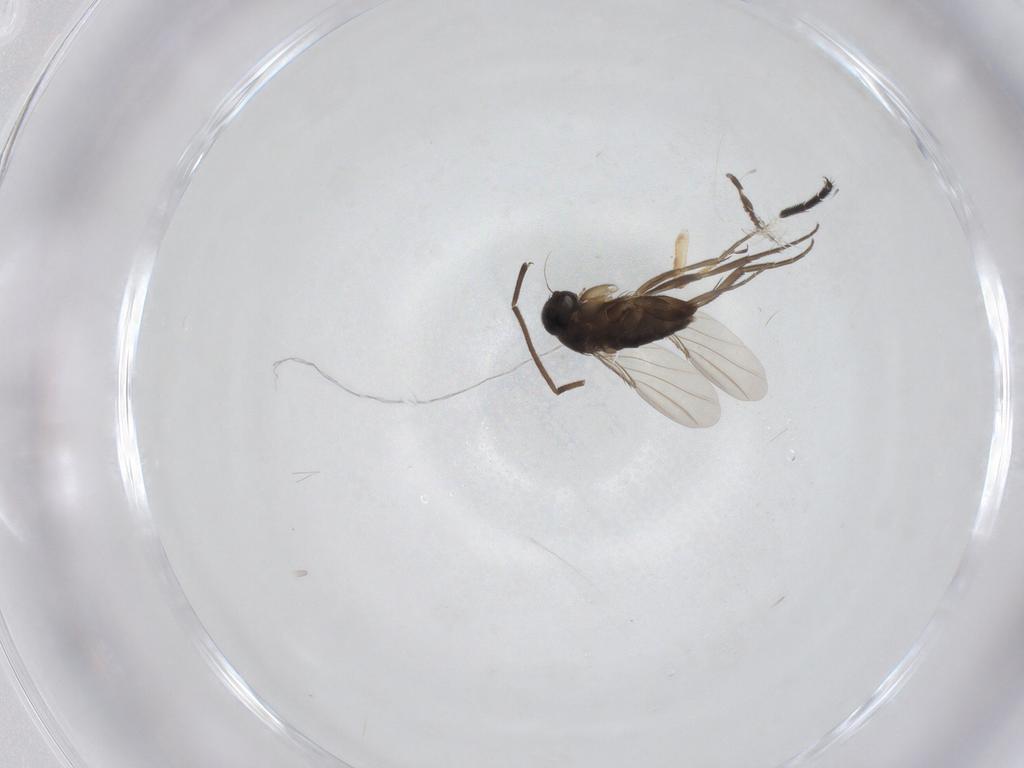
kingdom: Animalia
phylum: Arthropoda
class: Insecta
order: Diptera
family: Phoridae
